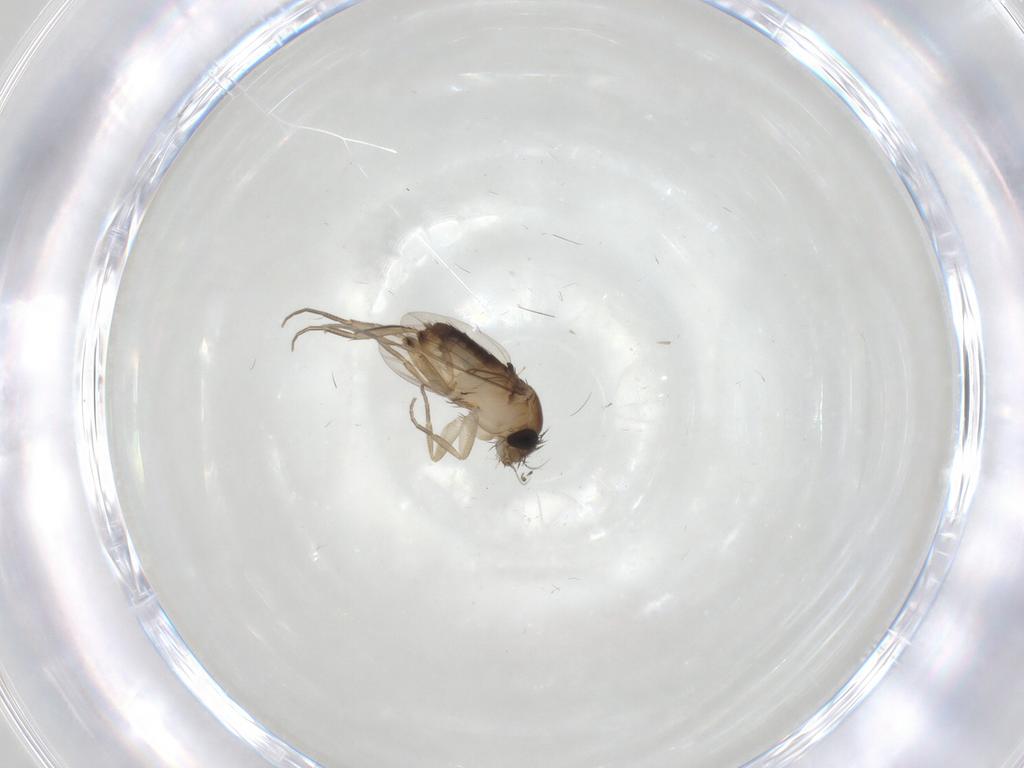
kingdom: Animalia
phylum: Arthropoda
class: Insecta
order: Diptera
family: Phoridae
